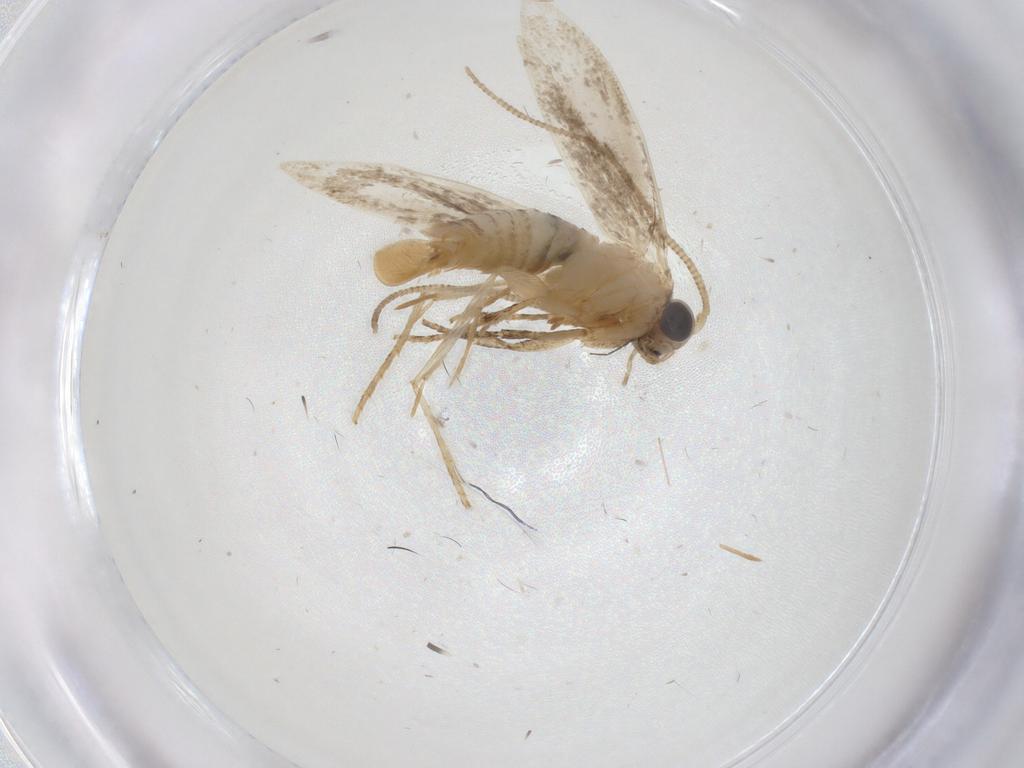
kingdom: Animalia
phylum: Arthropoda
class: Insecta
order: Lepidoptera
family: Tineidae
